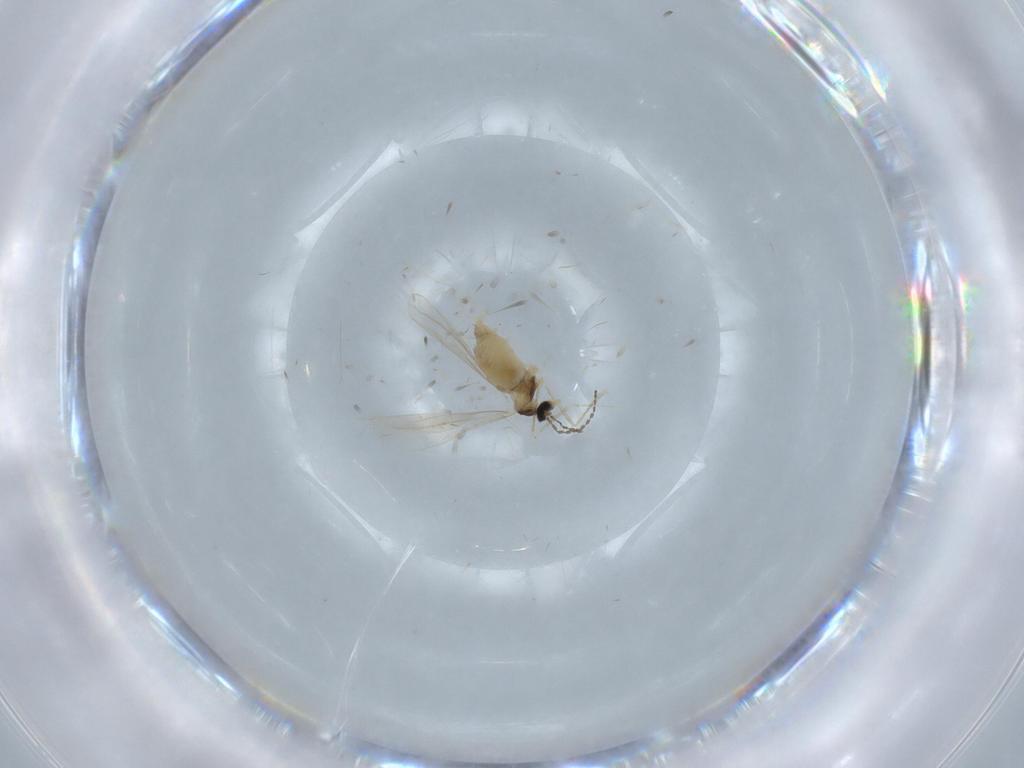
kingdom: Animalia
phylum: Arthropoda
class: Insecta
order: Diptera
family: Cecidomyiidae
